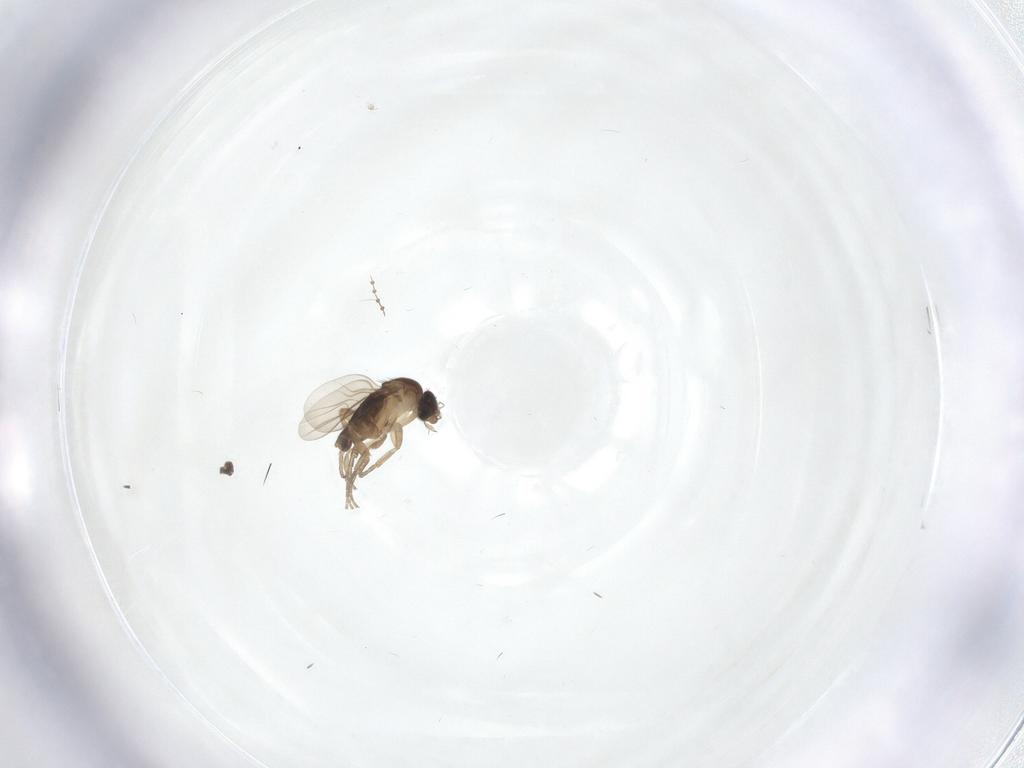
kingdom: Animalia
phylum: Arthropoda
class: Insecta
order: Diptera
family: Phoridae
